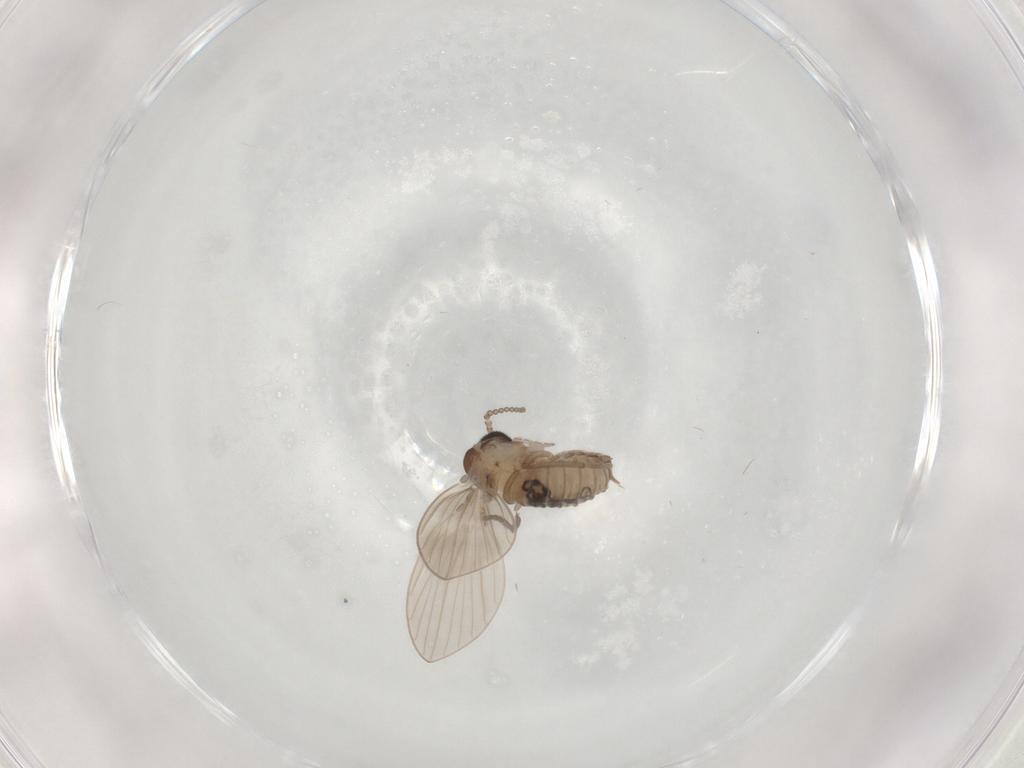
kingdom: Animalia
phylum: Arthropoda
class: Insecta
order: Diptera
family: Psychodidae
